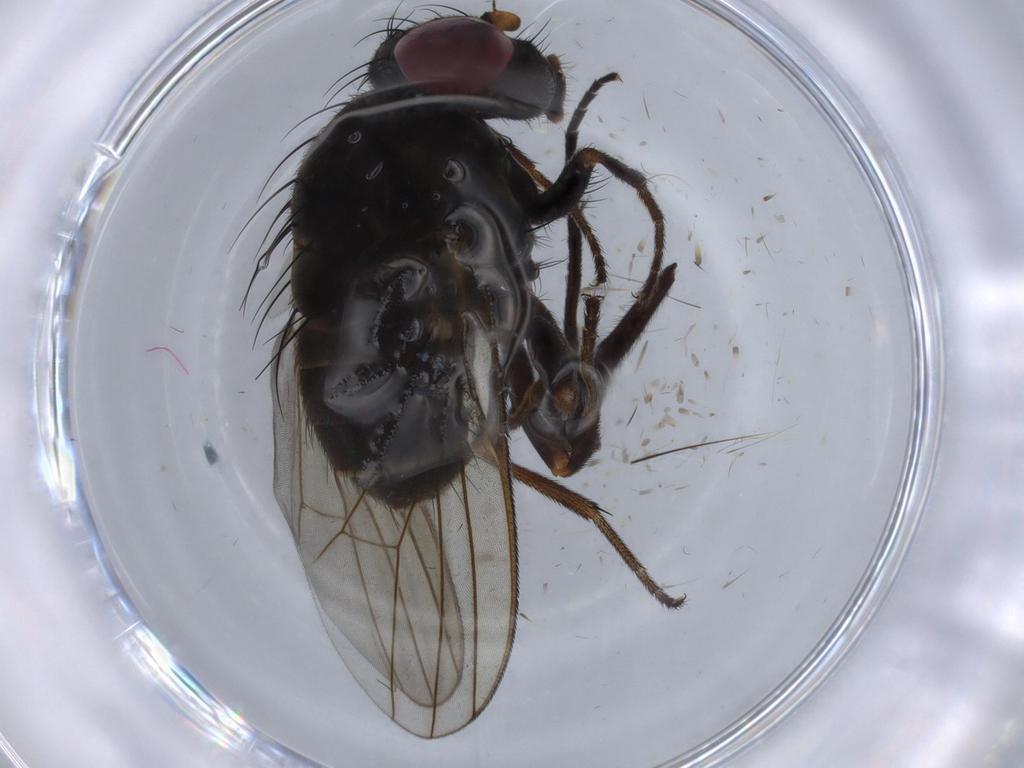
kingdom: Animalia
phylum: Arthropoda
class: Insecta
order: Diptera
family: Calliphoridae
